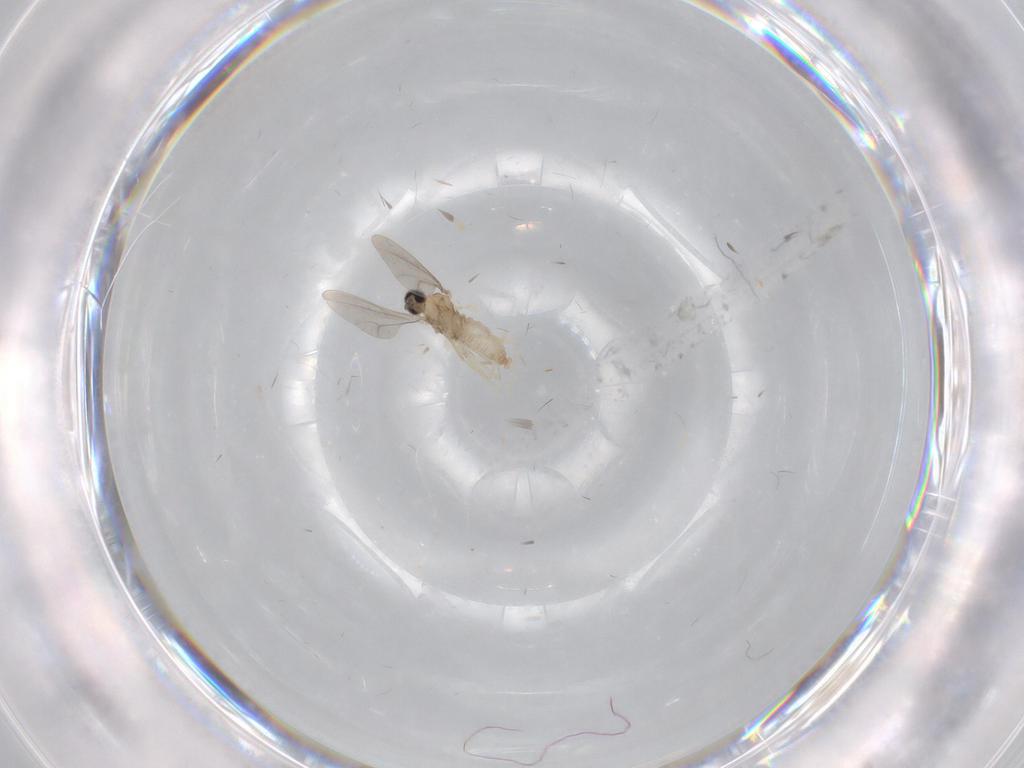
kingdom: Animalia
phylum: Arthropoda
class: Insecta
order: Diptera
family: Cecidomyiidae
